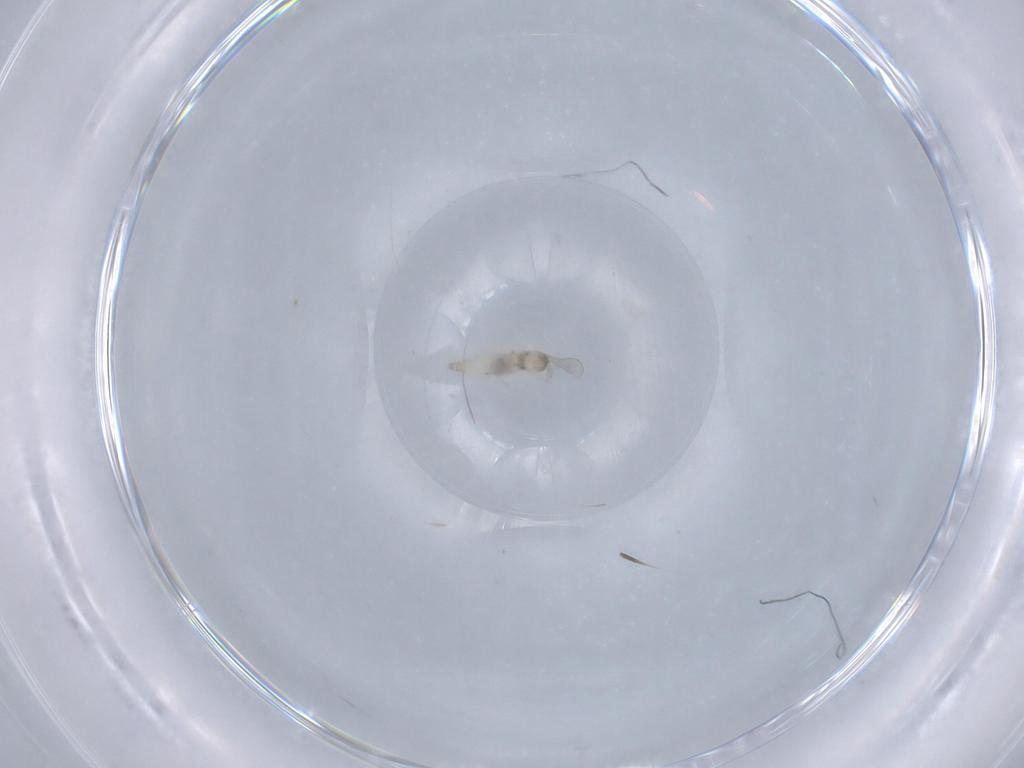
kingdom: Animalia
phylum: Arthropoda
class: Insecta
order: Diptera
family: Cecidomyiidae
